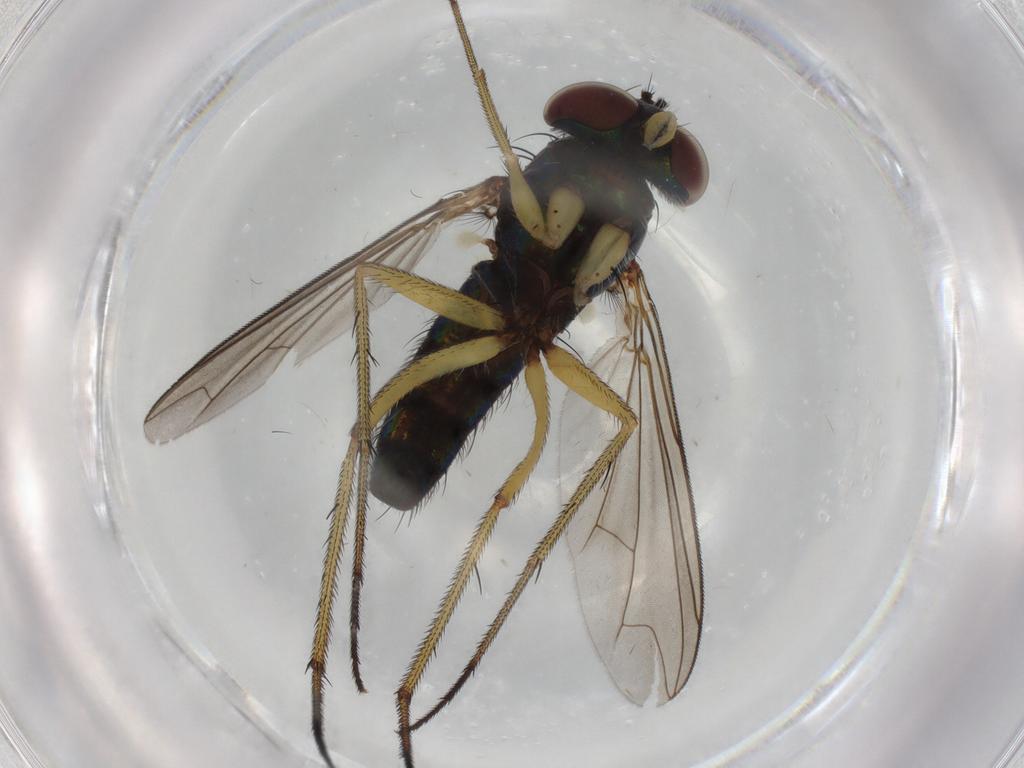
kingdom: Animalia
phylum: Arthropoda
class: Insecta
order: Diptera
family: Dolichopodidae
